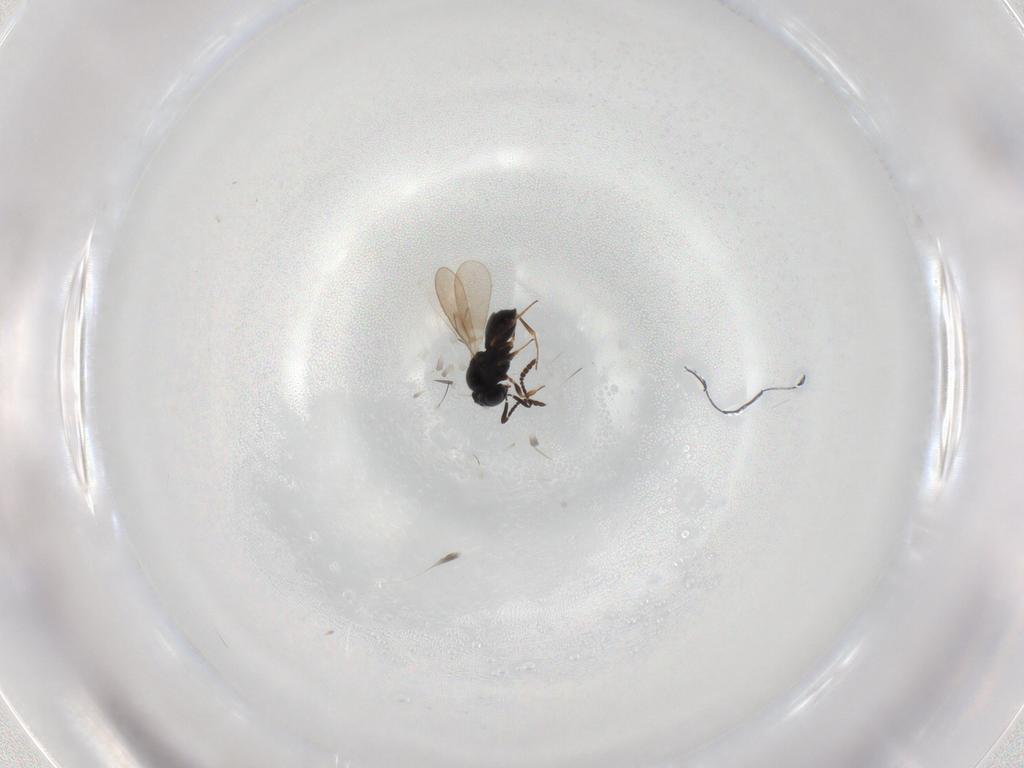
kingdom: Animalia
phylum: Arthropoda
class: Insecta
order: Hymenoptera
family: Scelionidae
